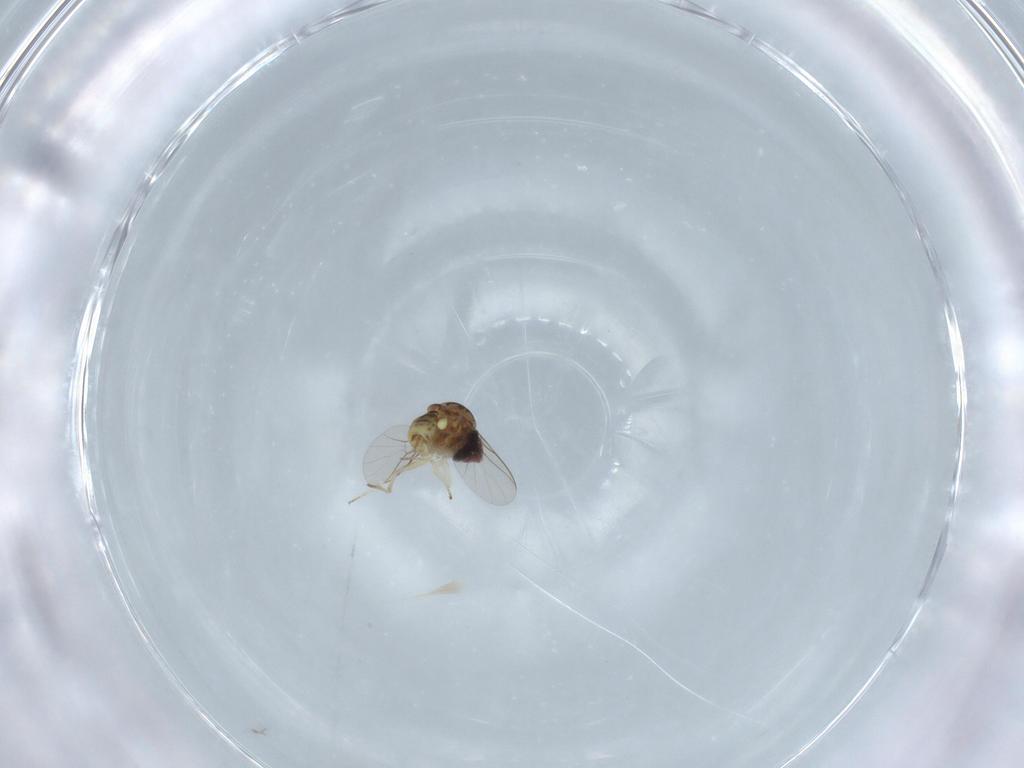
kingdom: Animalia
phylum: Arthropoda
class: Insecta
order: Diptera
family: Bombyliidae
